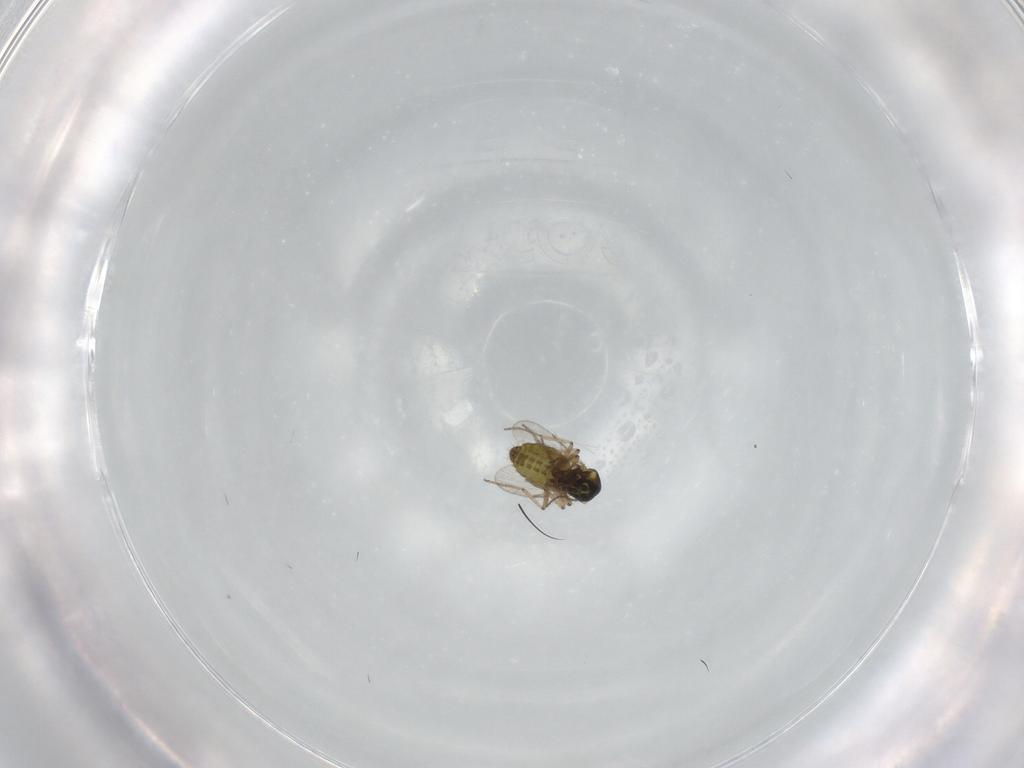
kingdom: Animalia
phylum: Arthropoda
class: Insecta
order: Diptera
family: Ceratopogonidae
